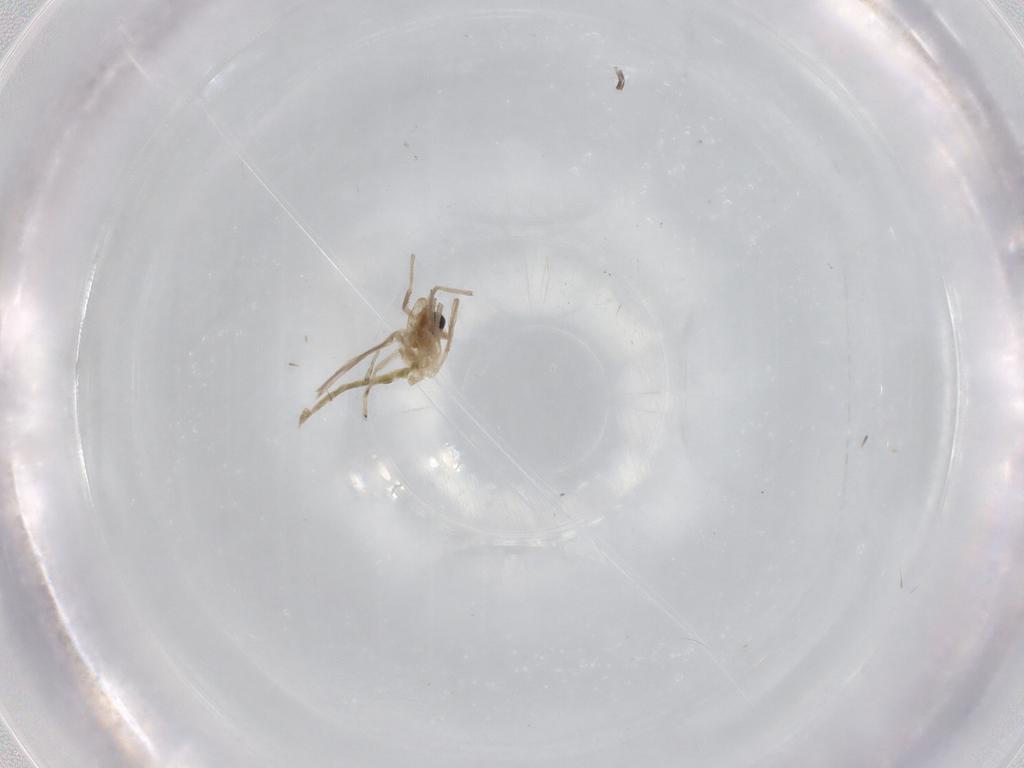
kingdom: Animalia
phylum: Arthropoda
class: Insecta
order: Diptera
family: Chironomidae
